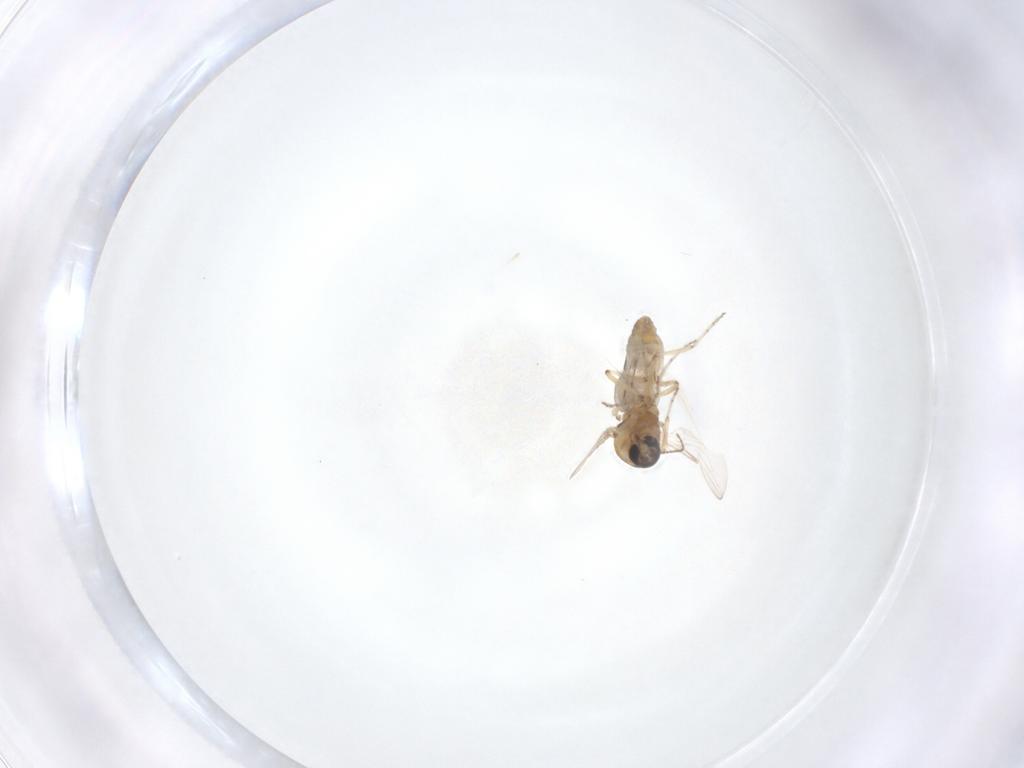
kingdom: Animalia
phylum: Arthropoda
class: Insecta
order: Diptera
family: Ceratopogonidae
